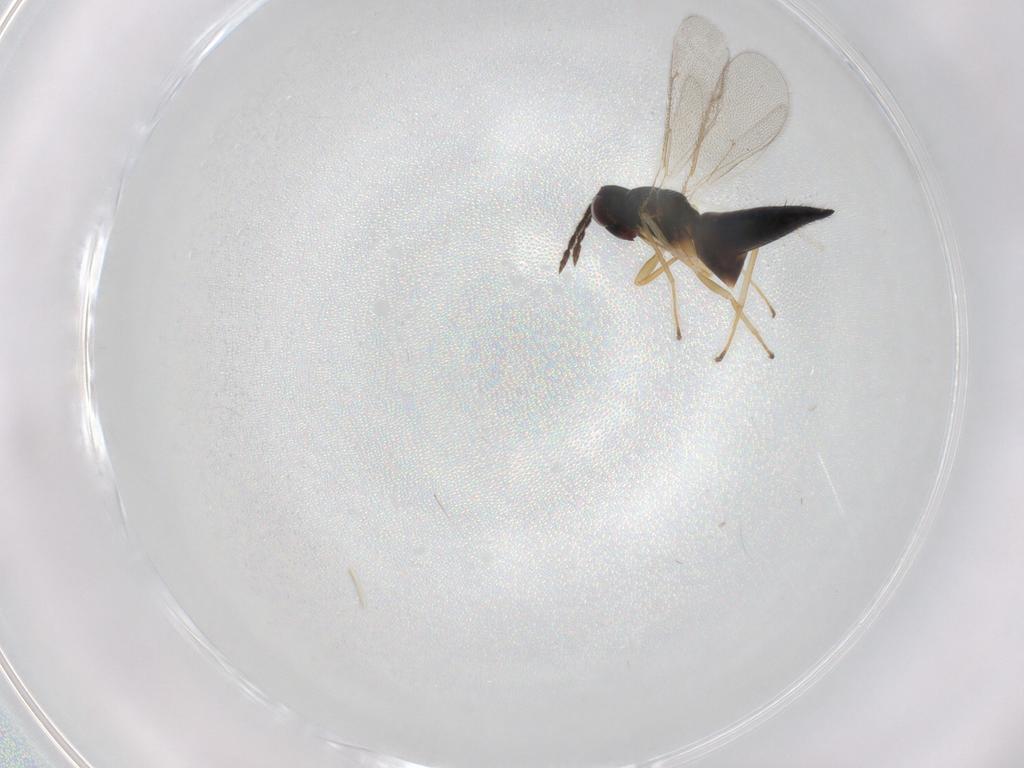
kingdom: Animalia
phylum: Arthropoda
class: Insecta
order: Hymenoptera
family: Eulophidae
